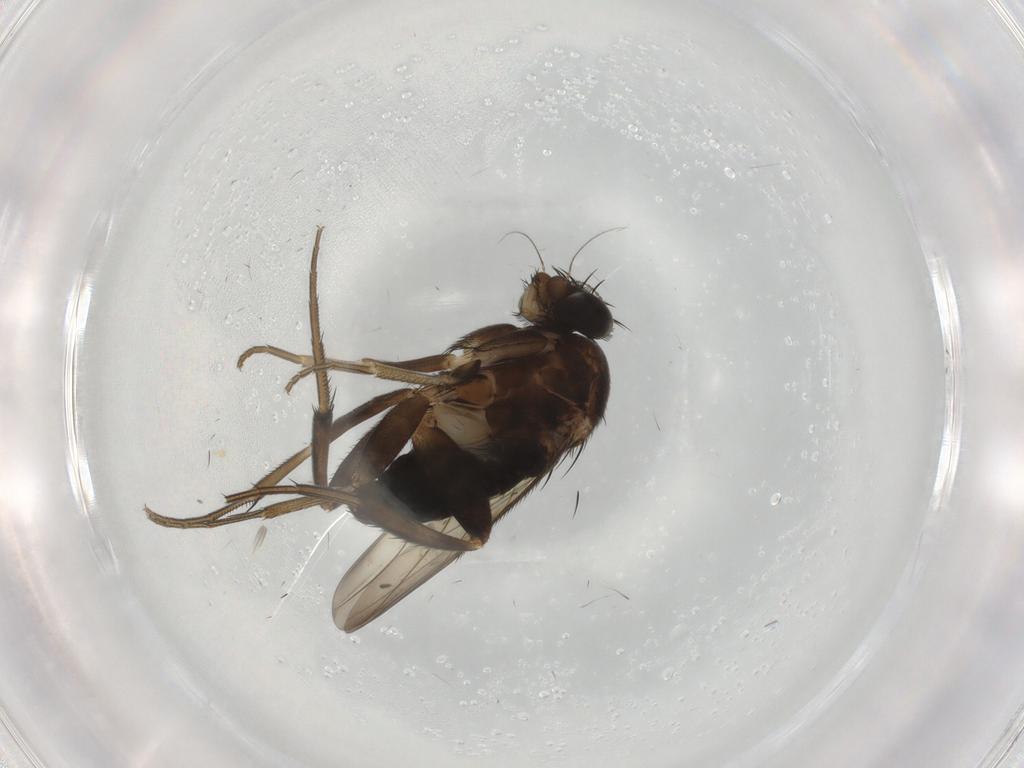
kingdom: Animalia
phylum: Arthropoda
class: Insecta
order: Diptera
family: Phoridae
